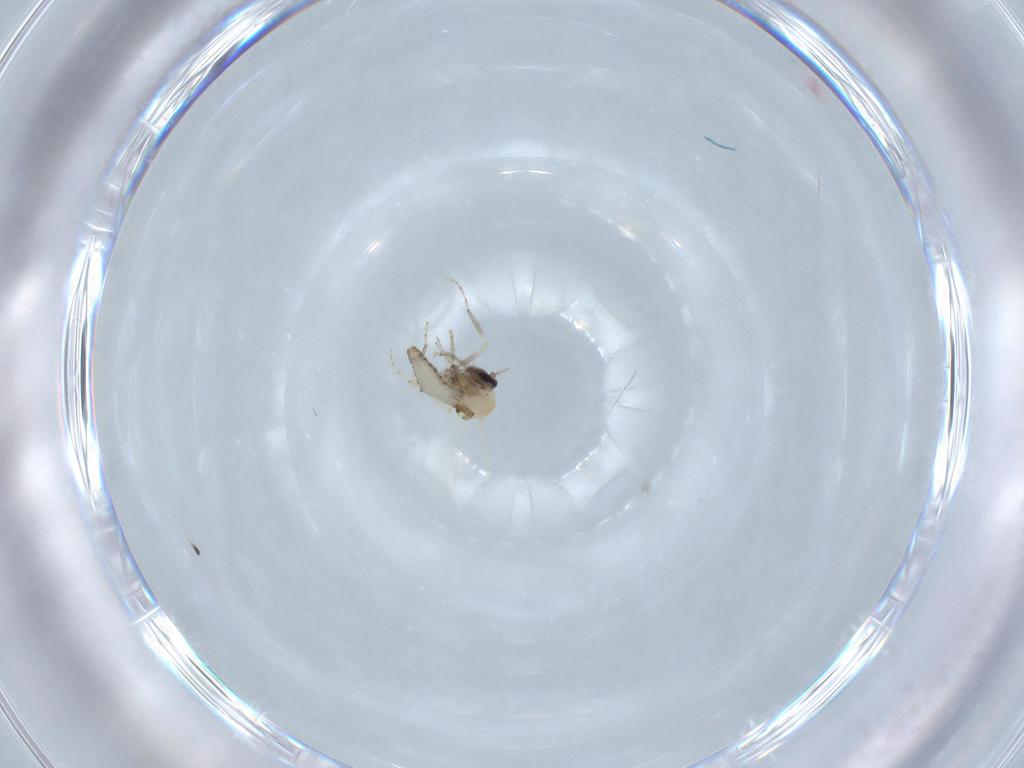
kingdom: Animalia
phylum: Arthropoda
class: Insecta
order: Diptera
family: Ceratopogonidae
